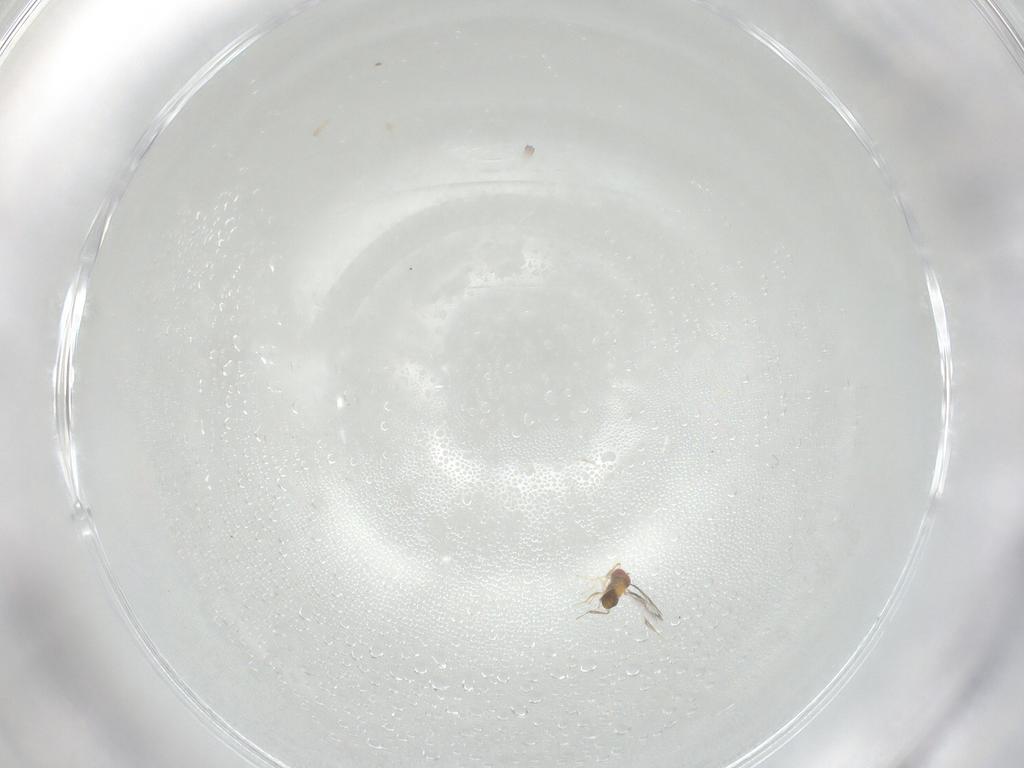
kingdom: Animalia
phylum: Arthropoda
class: Insecta
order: Hymenoptera
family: Trichogrammatidae
